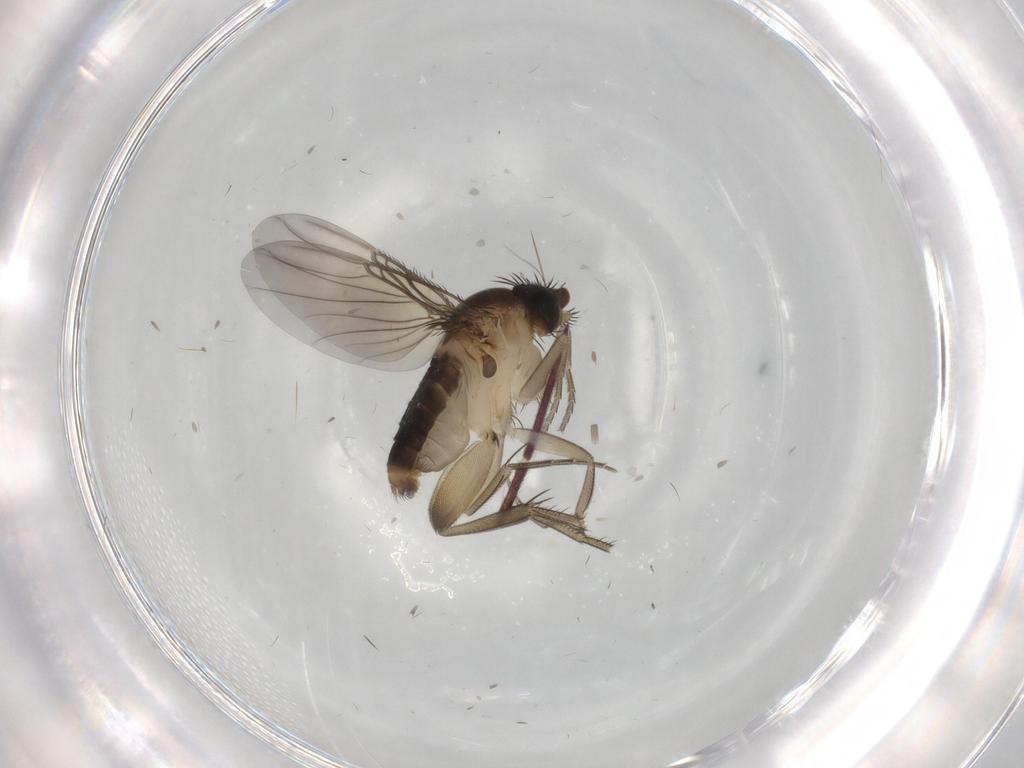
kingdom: Animalia
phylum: Arthropoda
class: Insecta
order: Diptera
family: Phoridae
